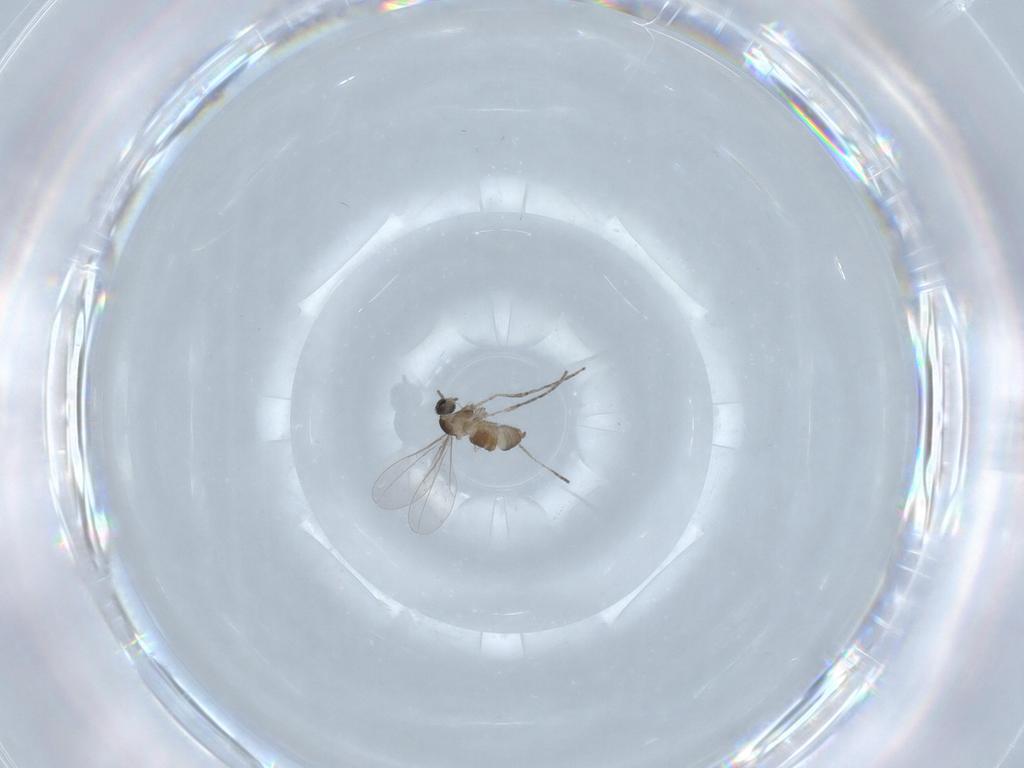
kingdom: Animalia
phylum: Arthropoda
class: Insecta
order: Diptera
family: Cecidomyiidae
